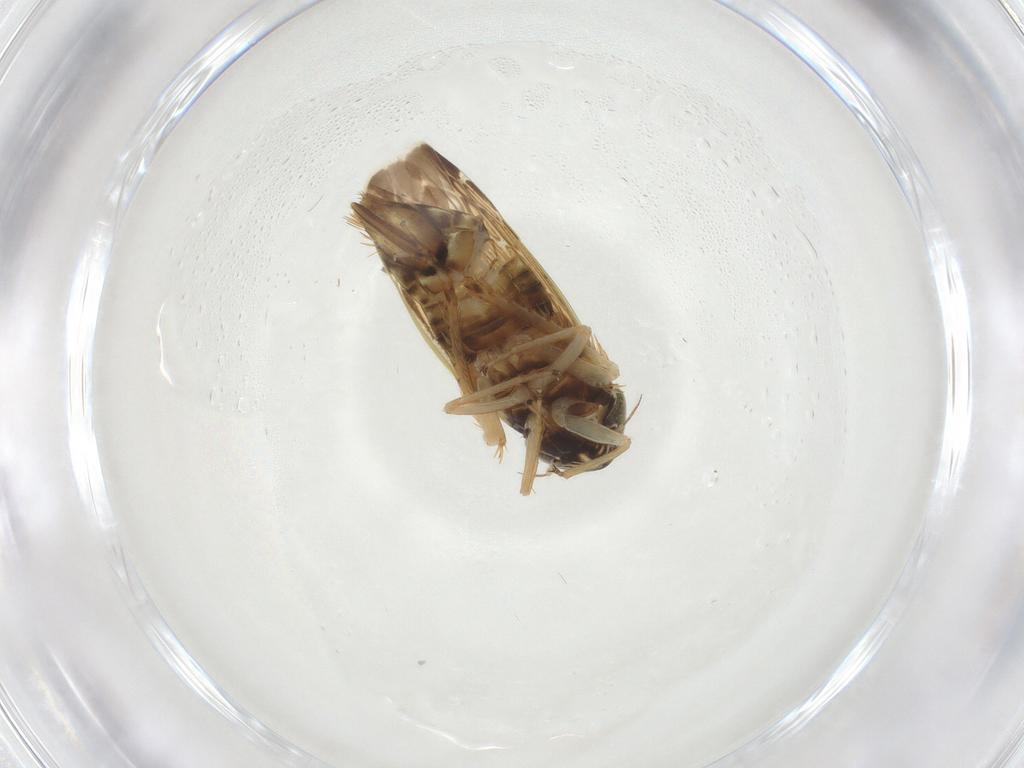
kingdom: Animalia
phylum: Arthropoda
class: Insecta
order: Hemiptera
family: Cicadellidae
